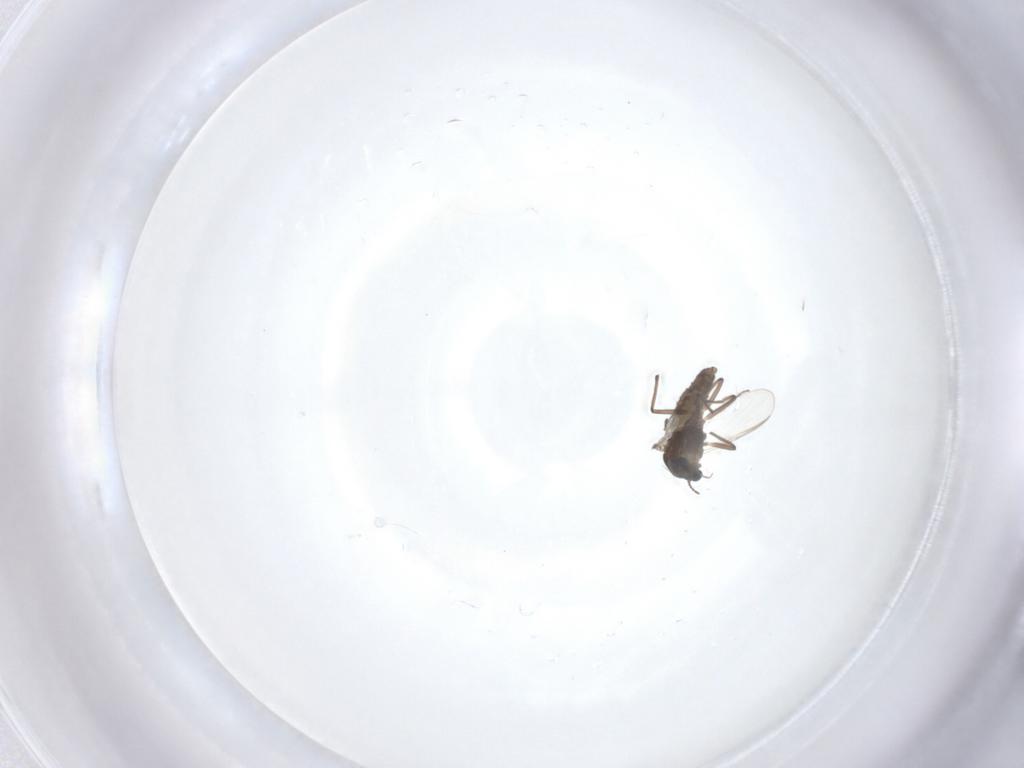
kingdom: Animalia
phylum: Arthropoda
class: Insecta
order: Diptera
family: Chironomidae
